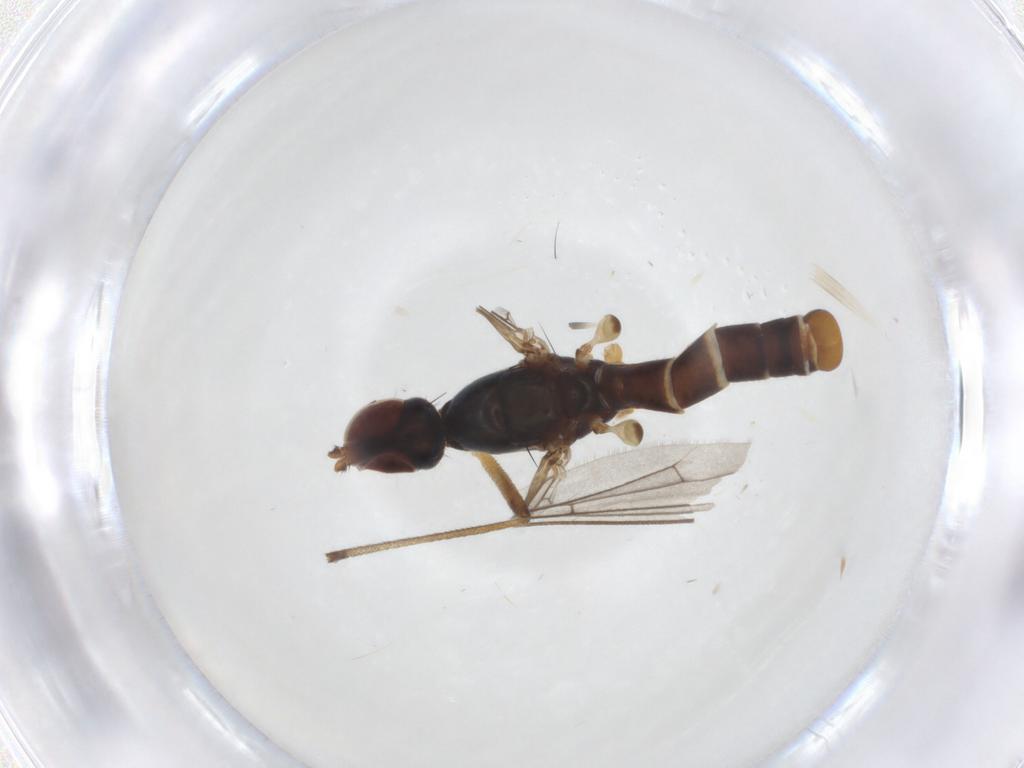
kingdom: Animalia
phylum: Arthropoda
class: Insecta
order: Diptera
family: Micropezidae
